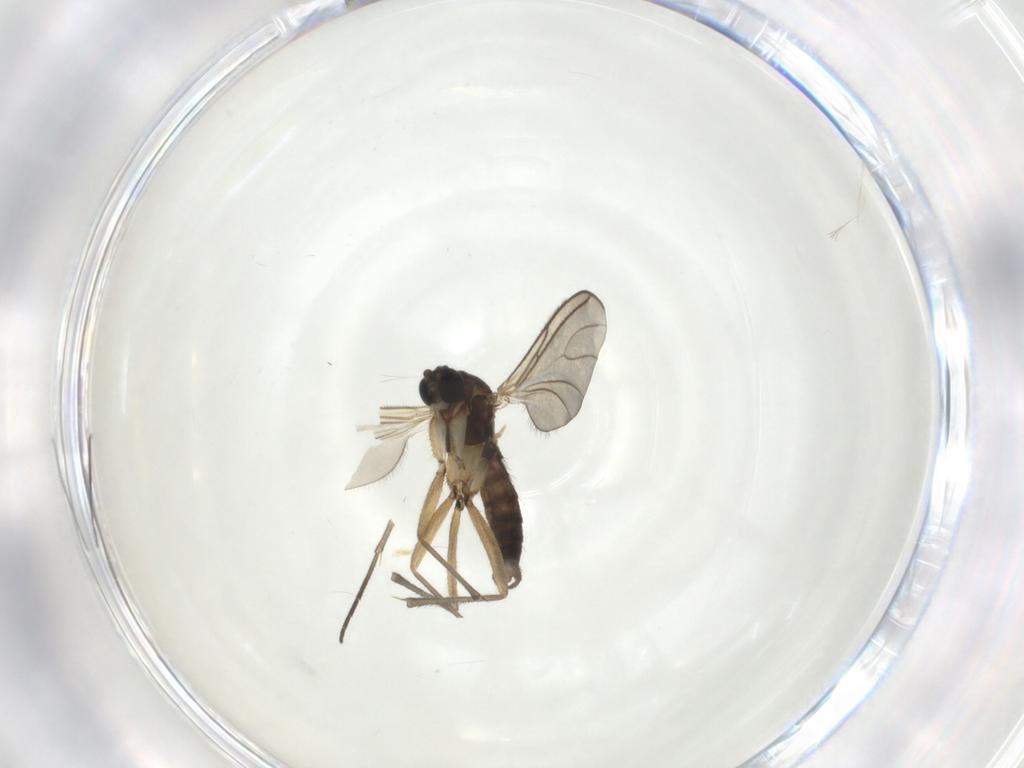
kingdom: Animalia
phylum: Arthropoda
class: Insecta
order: Diptera
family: Sciaridae
